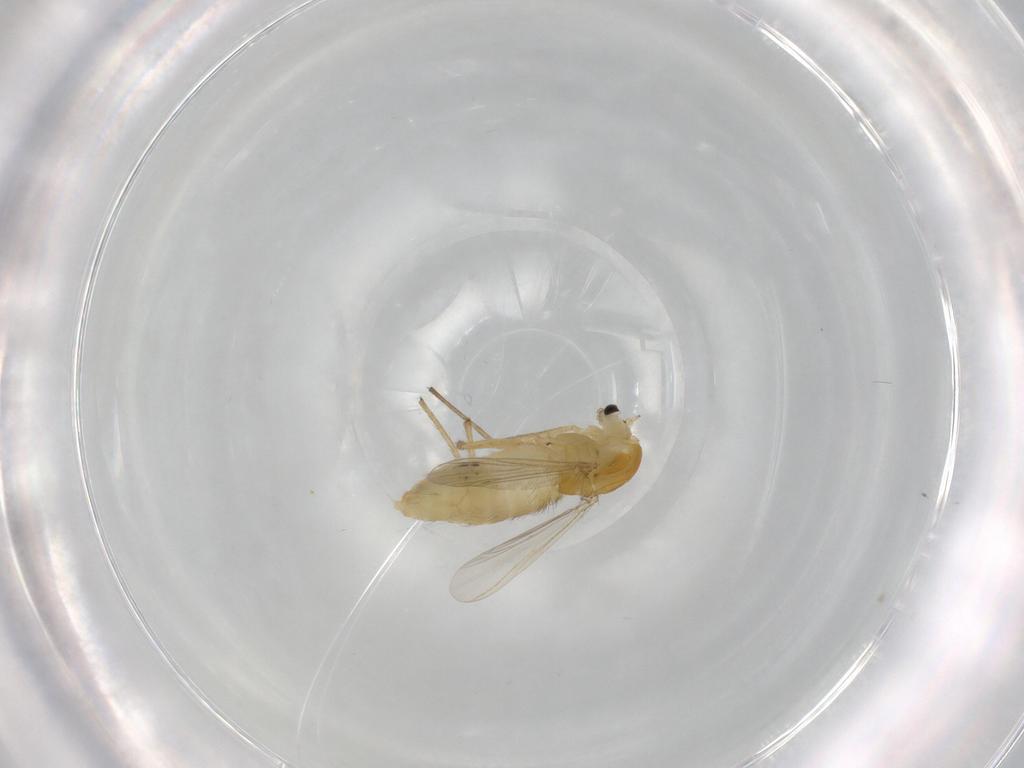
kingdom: Animalia
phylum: Arthropoda
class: Insecta
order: Diptera
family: Chironomidae
